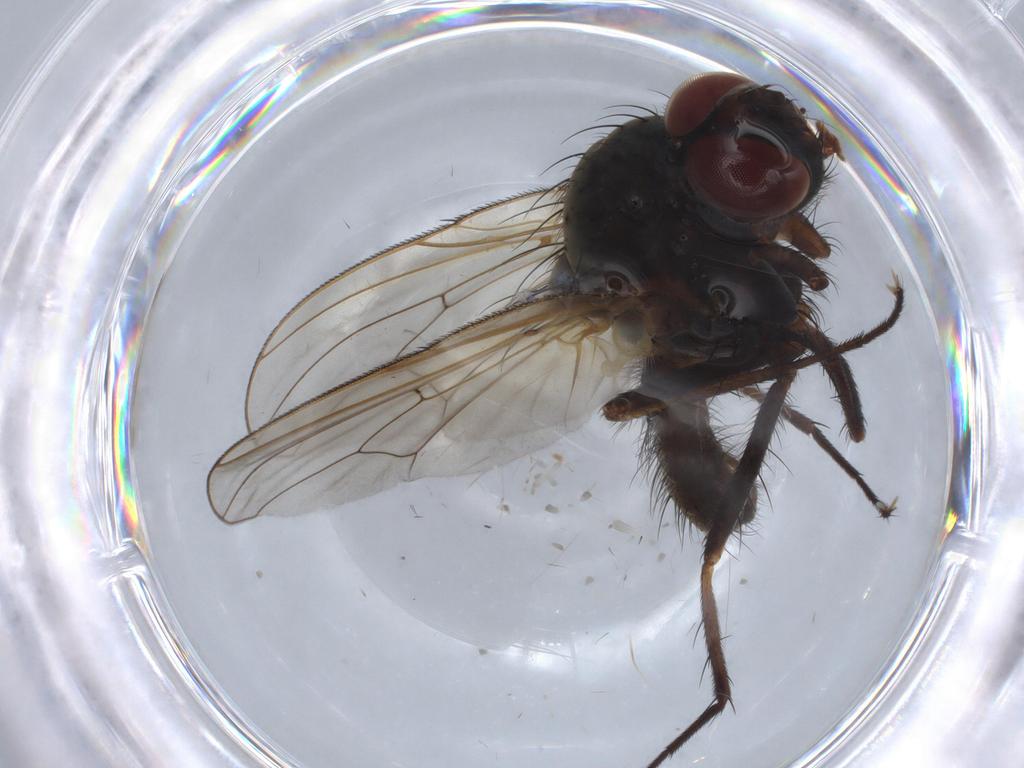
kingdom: Animalia
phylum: Arthropoda
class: Insecta
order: Diptera
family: Anthomyiidae
